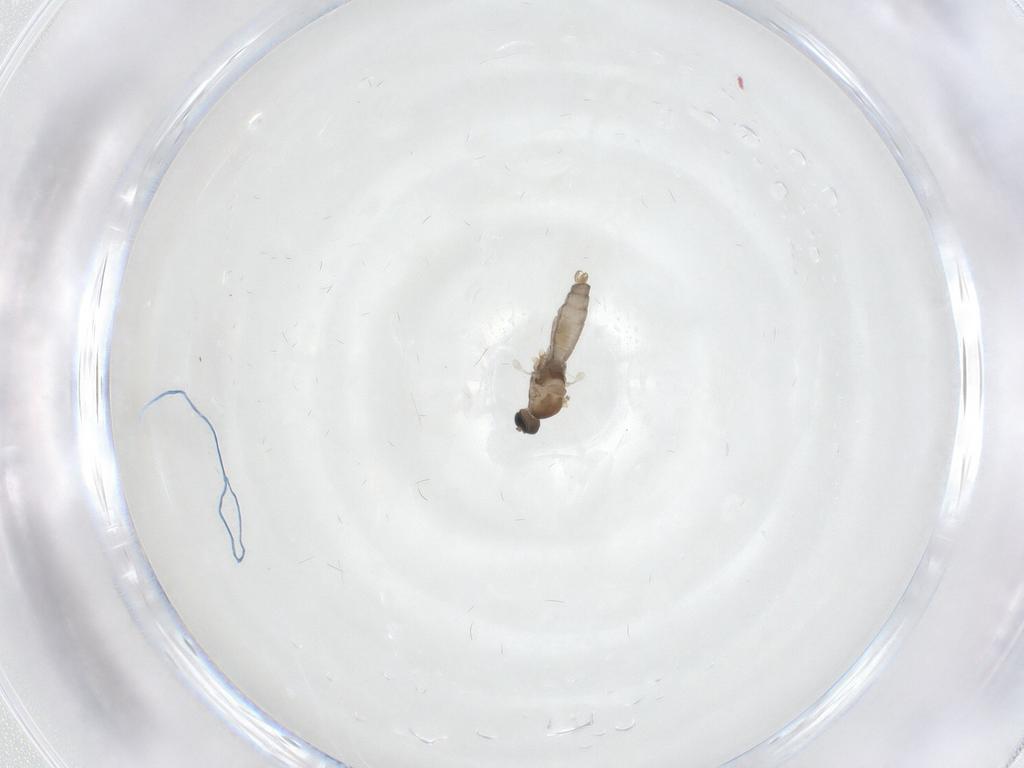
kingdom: Animalia
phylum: Arthropoda
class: Insecta
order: Diptera
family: Cecidomyiidae
